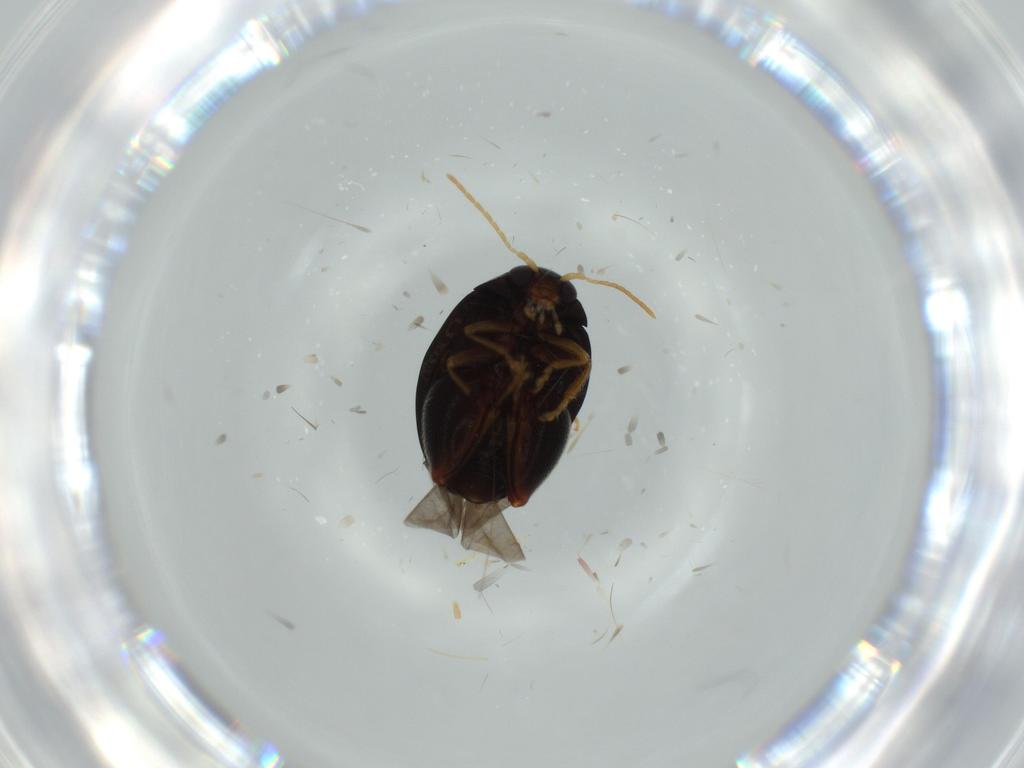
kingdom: Animalia
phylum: Arthropoda
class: Insecta
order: Coleoptera
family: Chrysomelidae
